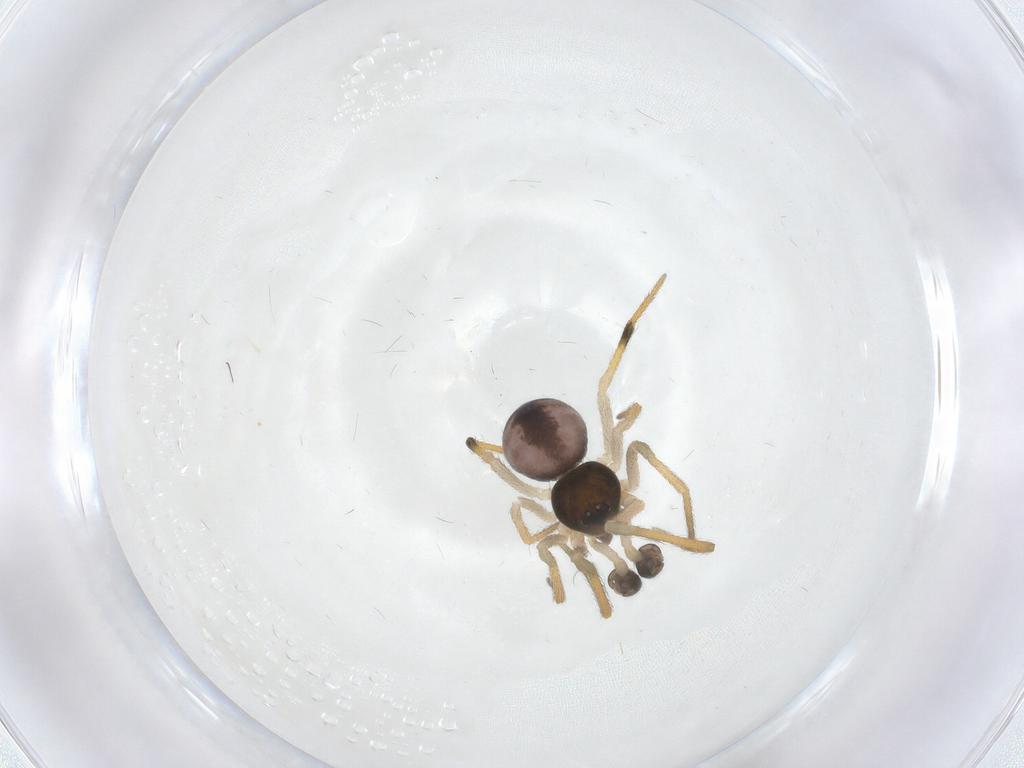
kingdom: Animalia
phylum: Arthropoda
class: Arachnida
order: Araneae
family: Theridiidae
